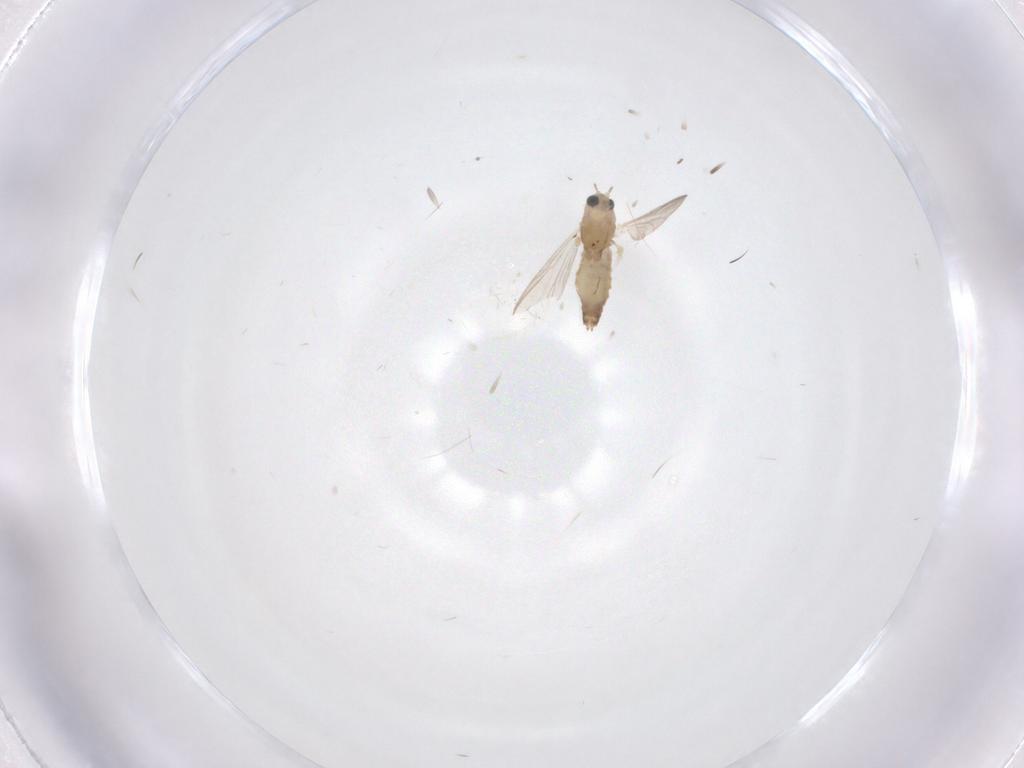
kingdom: Animalia
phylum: Arthropoda
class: Insecta
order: Diptera
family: Chironomidae
